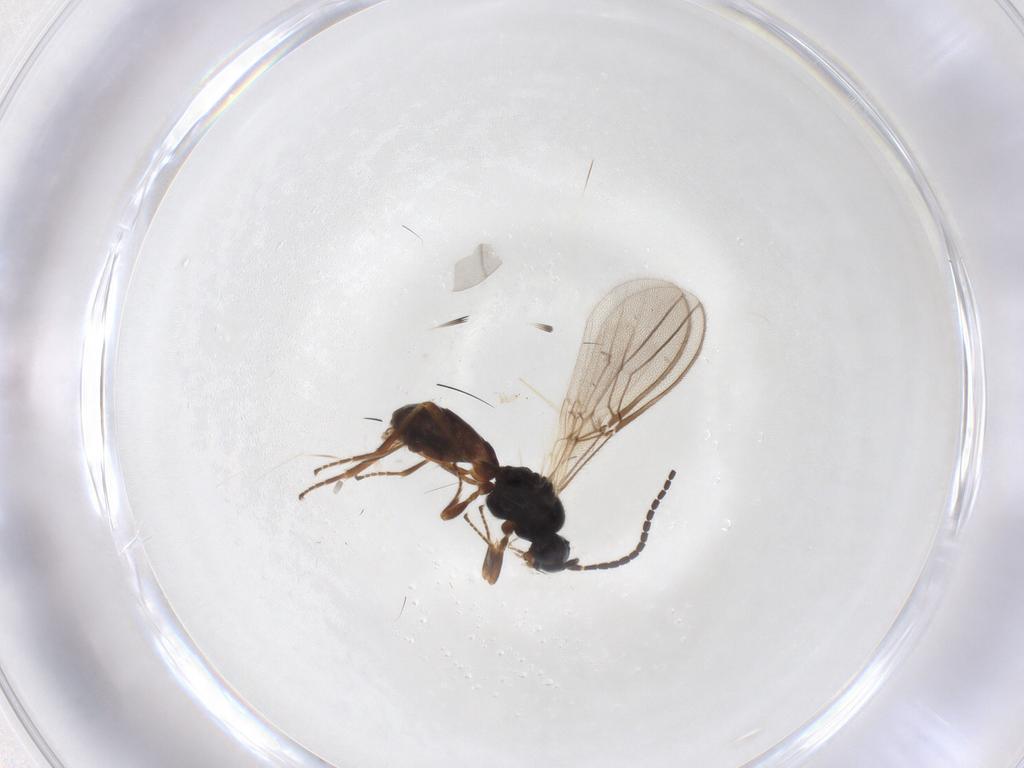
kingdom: Animalia
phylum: Arthropoda
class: Insecta
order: Hymenoptera
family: Braconidae
